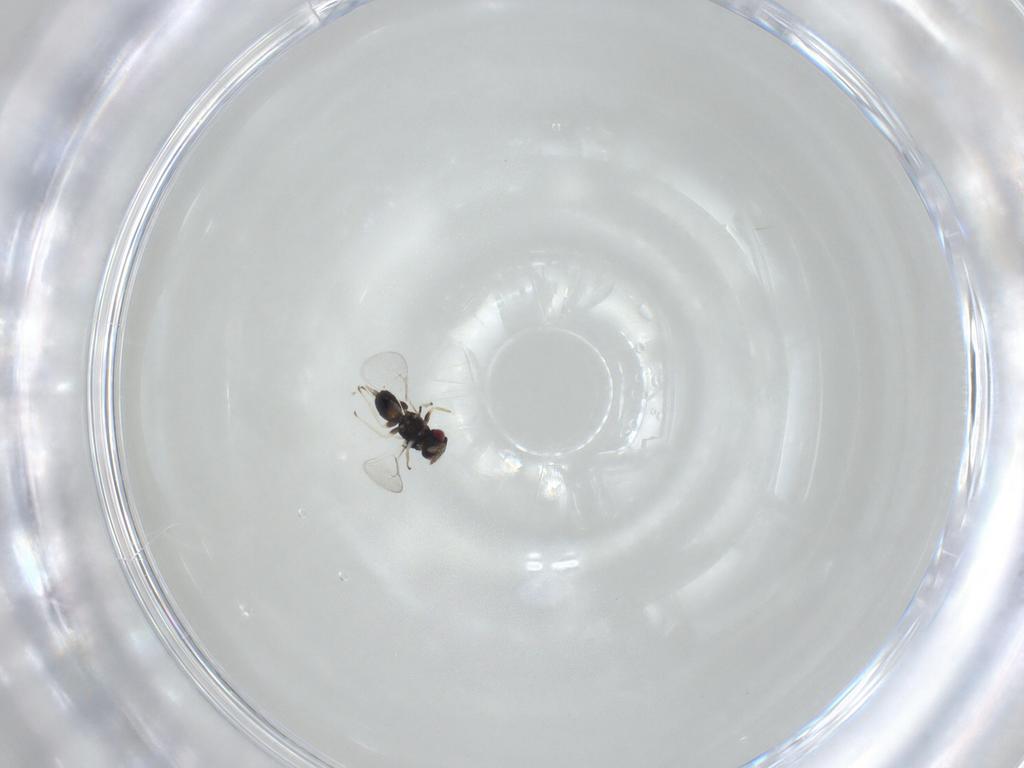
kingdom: Animalia
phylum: Arthropoda
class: Insecta
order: Hymenoptera
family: Eulophidae
